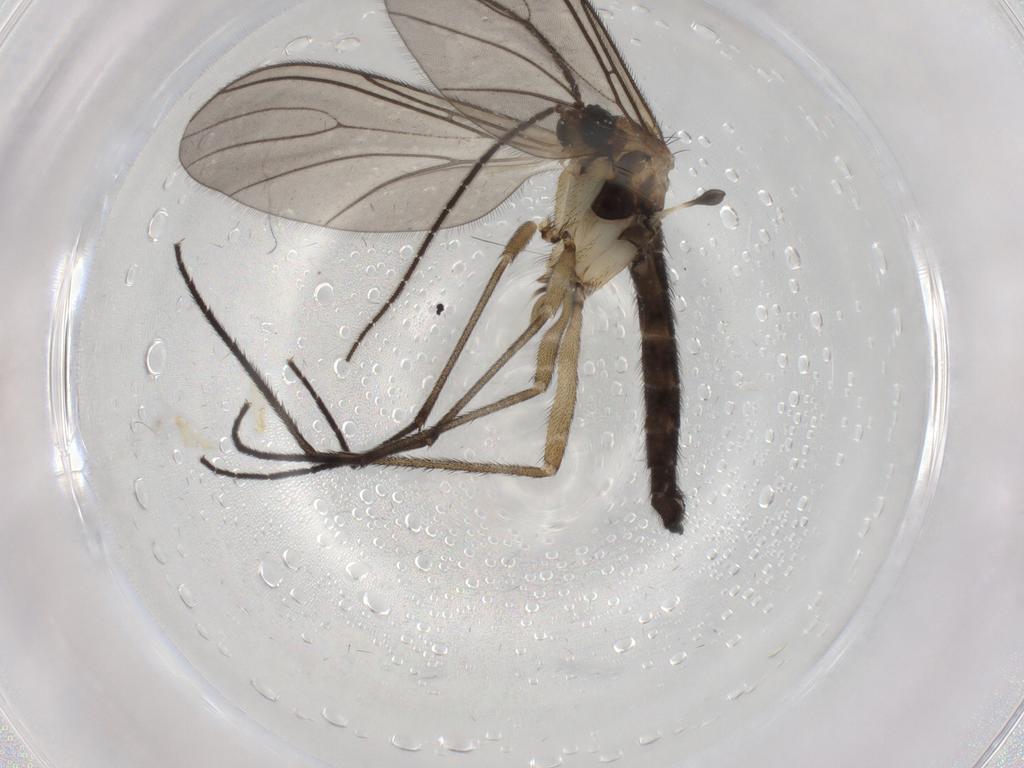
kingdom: Animalia
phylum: Arthropoda
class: Insecta
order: Diptera
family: Sciaridae
